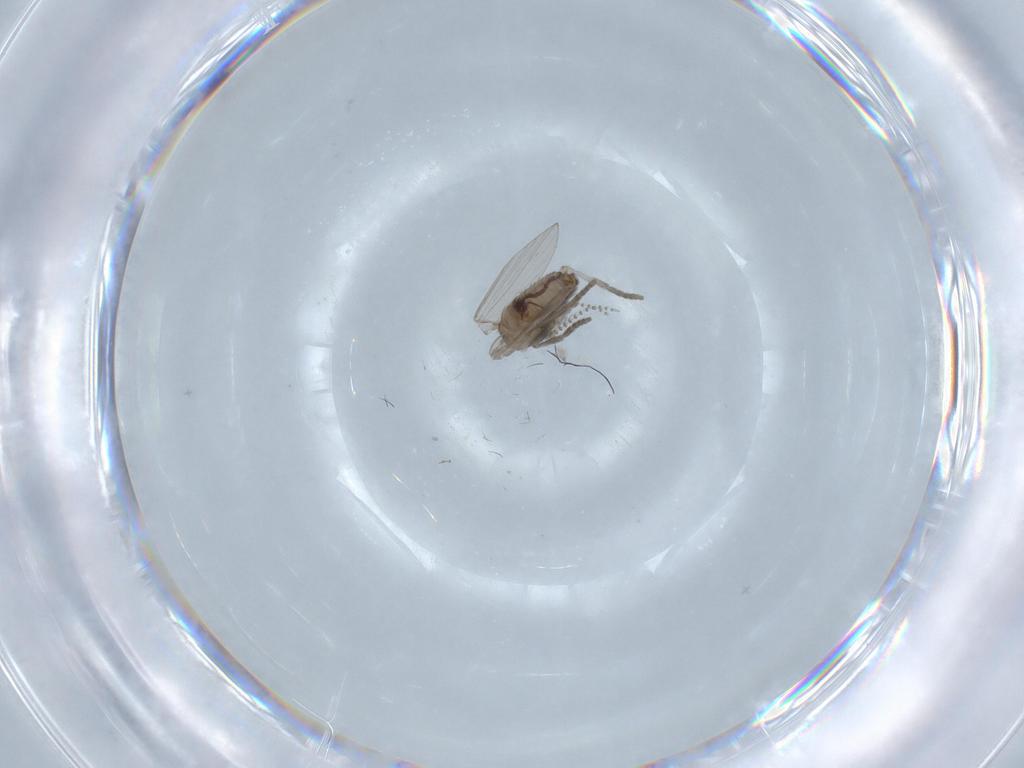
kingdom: Animalia
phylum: Arthropoda
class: Insecta
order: Diptera
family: Psychodidae
